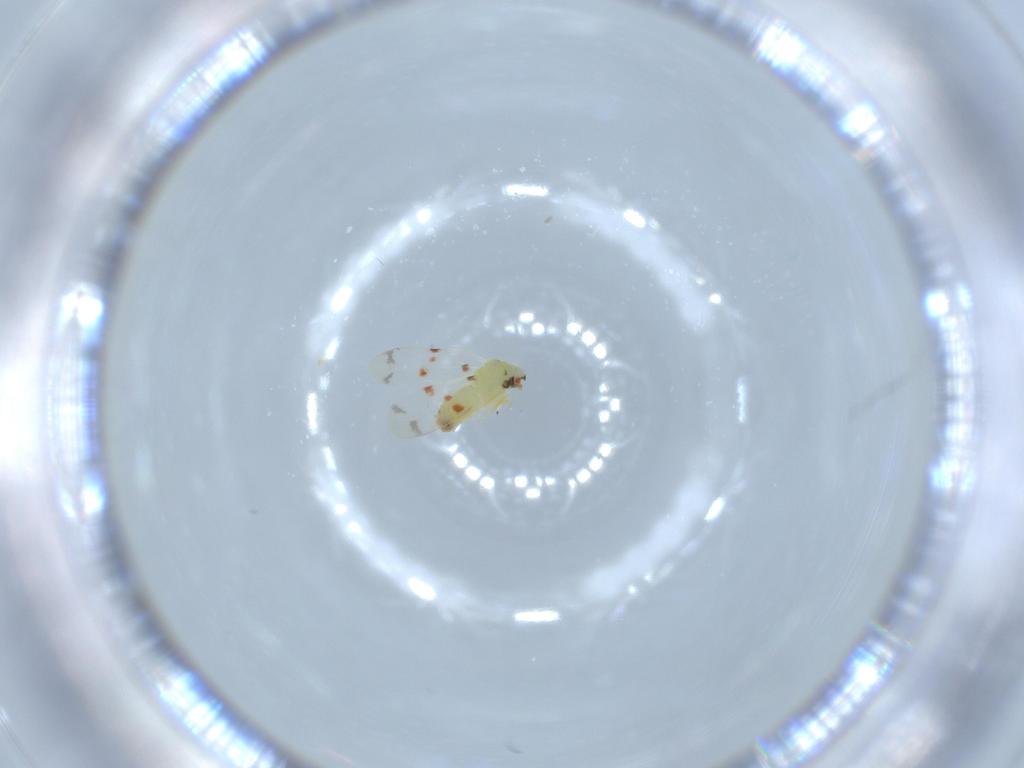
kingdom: Animalia
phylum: Arthropoda
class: Insecta
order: Hemiptera
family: Aleyrodidae
